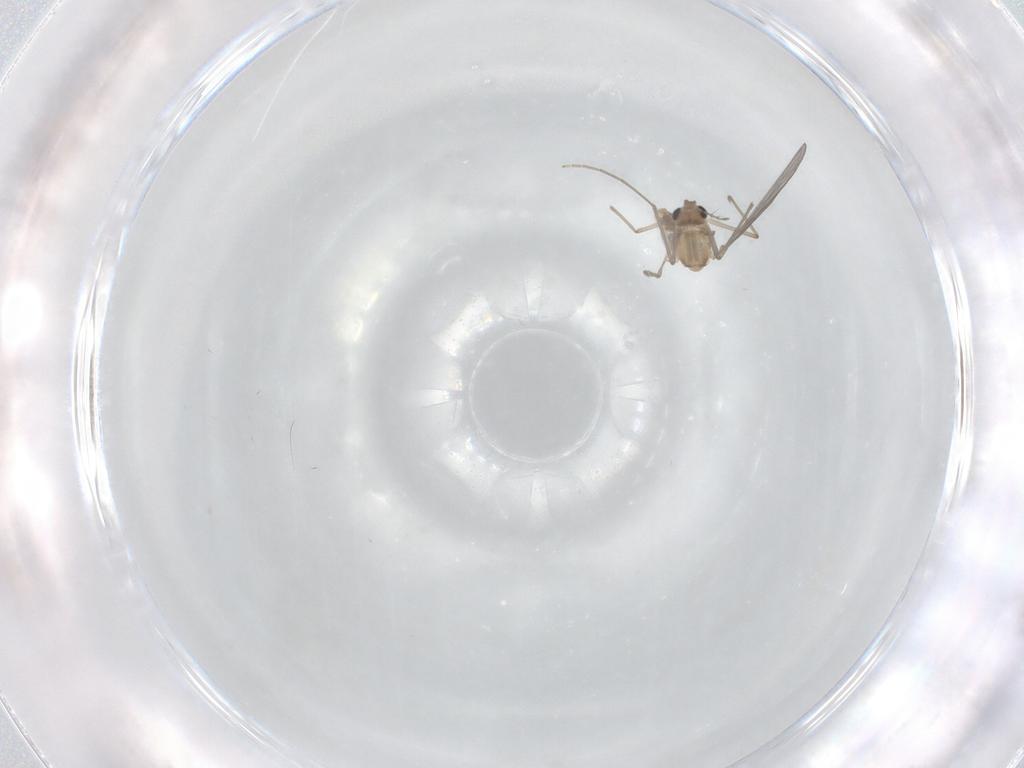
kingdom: Animalia
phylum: Arthropoda
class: Insecta
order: Diptera
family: Chironomidae
